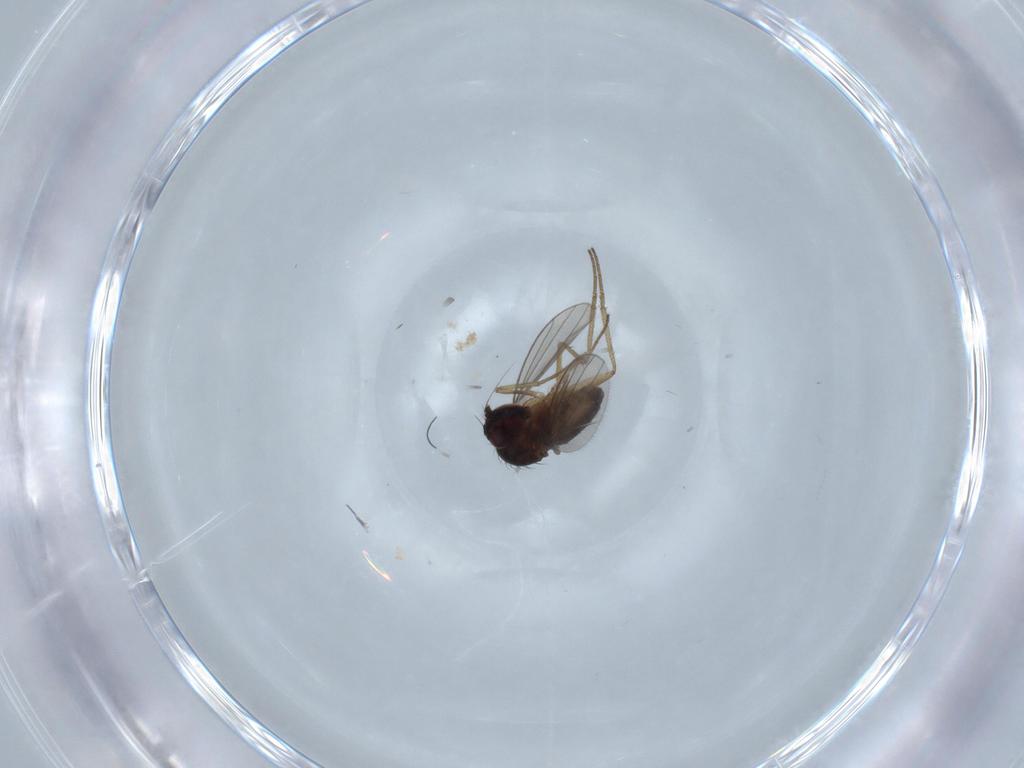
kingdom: Animalia
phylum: Arthropoda
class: Insecta
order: Diptera
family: Dolichopodidae
